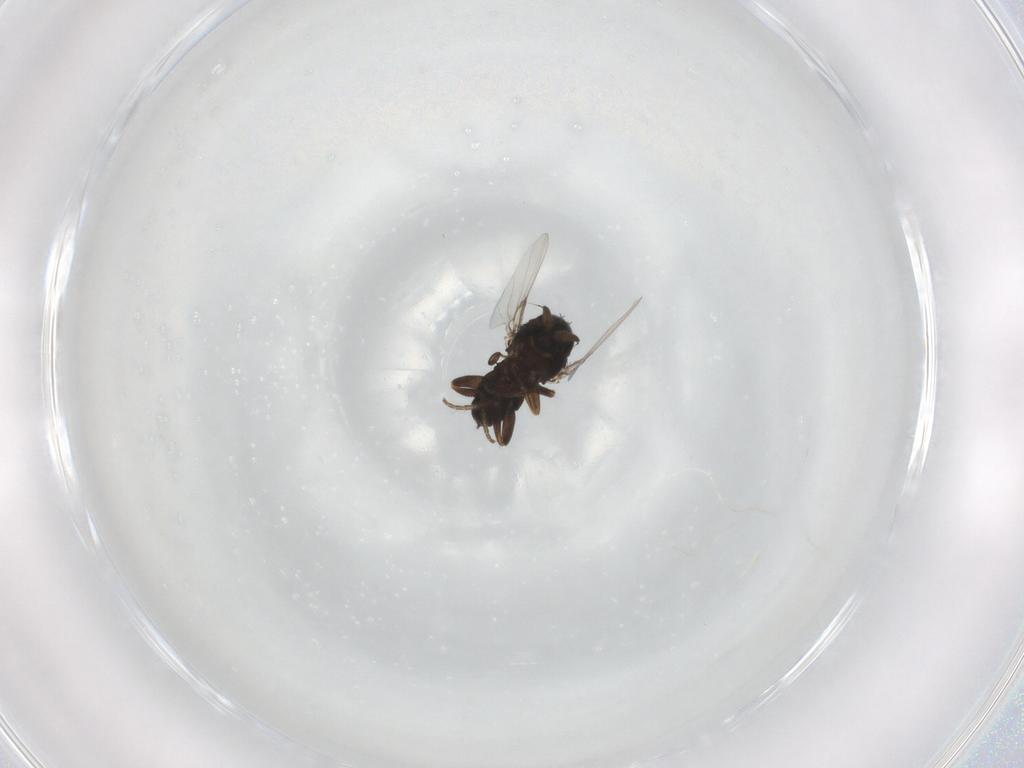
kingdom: Animalia
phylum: Arthropoda
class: Insecta
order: Diptera
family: Phoridae
